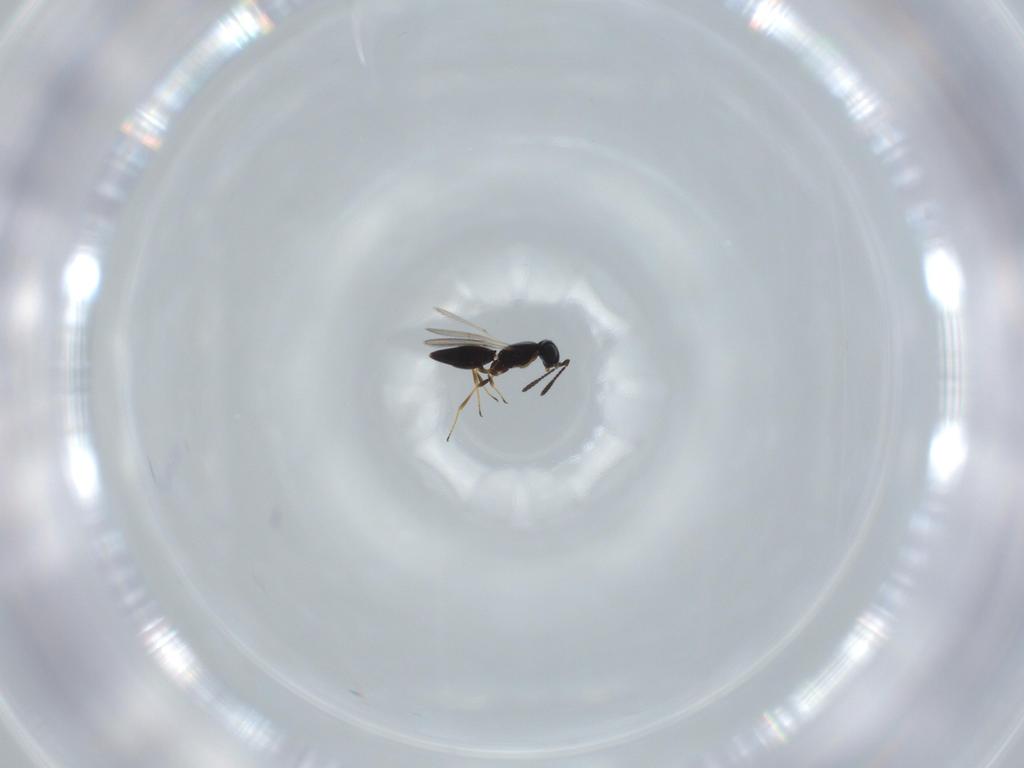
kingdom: Animalia
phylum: Arthropoda
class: Insecta
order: Hymenoptera
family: Scelionidae
